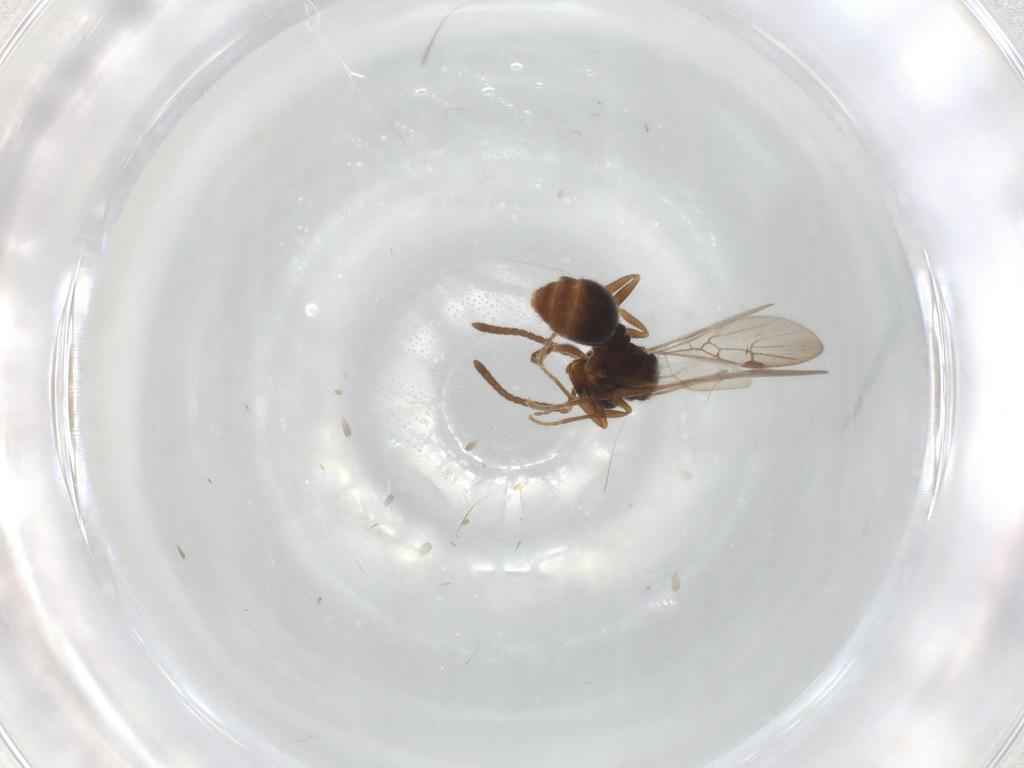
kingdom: Animalia
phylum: Arthropoda
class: Insecta
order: Hymenoptera
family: Formicidae
